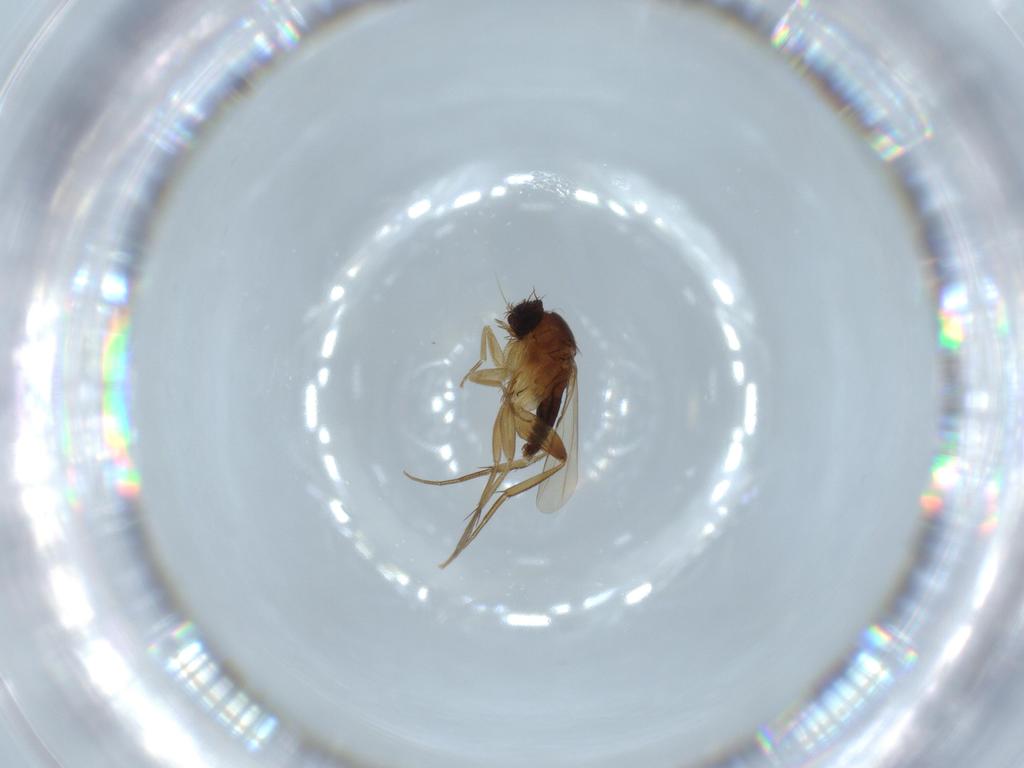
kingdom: Animalia
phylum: Arthropoda
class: Insecta
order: Diptera
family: Phoridae
